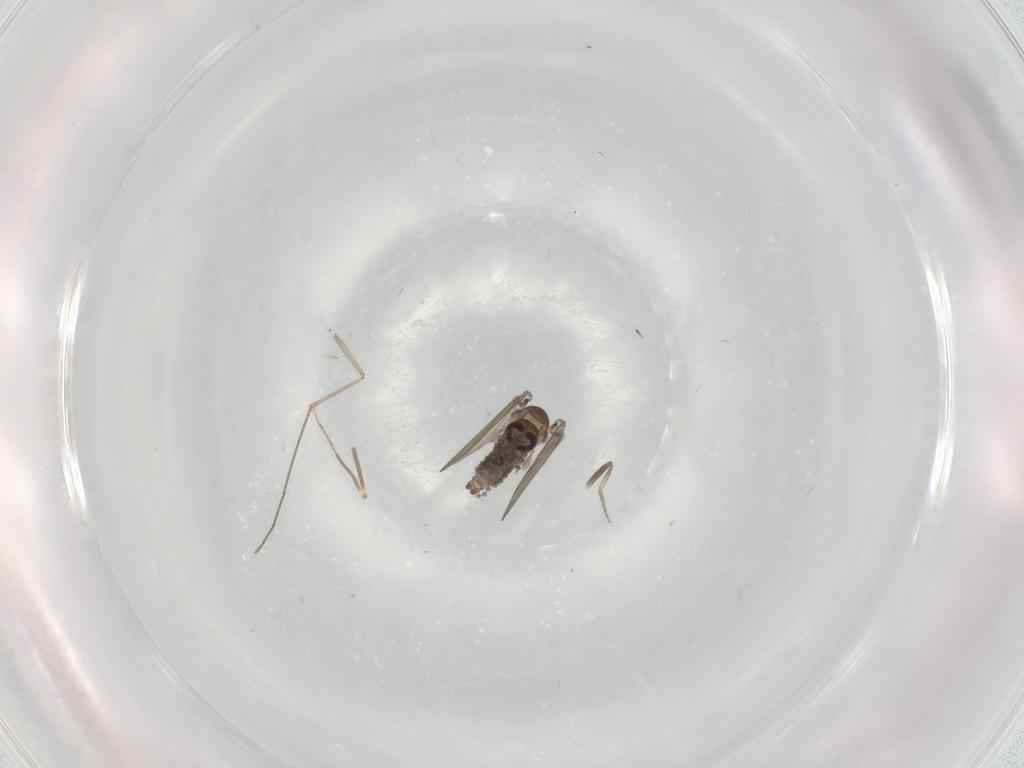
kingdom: Animalia
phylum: Arthropoda
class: Insecta
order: Diptera
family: Psychodidae
